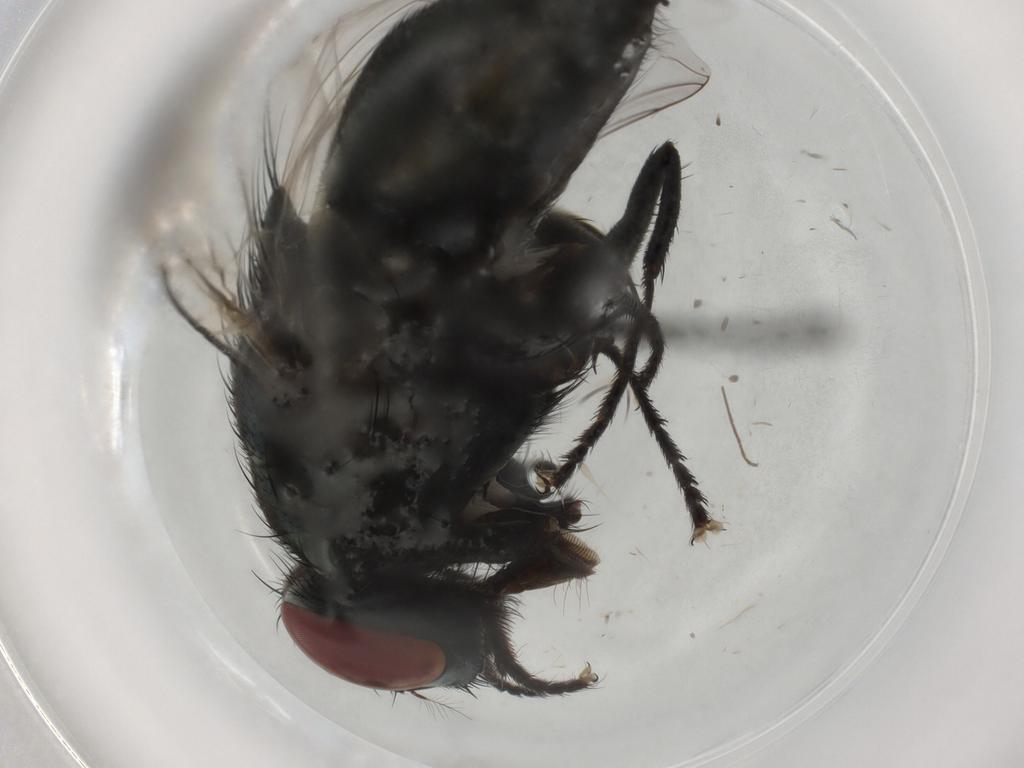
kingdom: Animalia
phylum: Arthropoda
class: Insecta
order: Diptera
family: Muscidae
